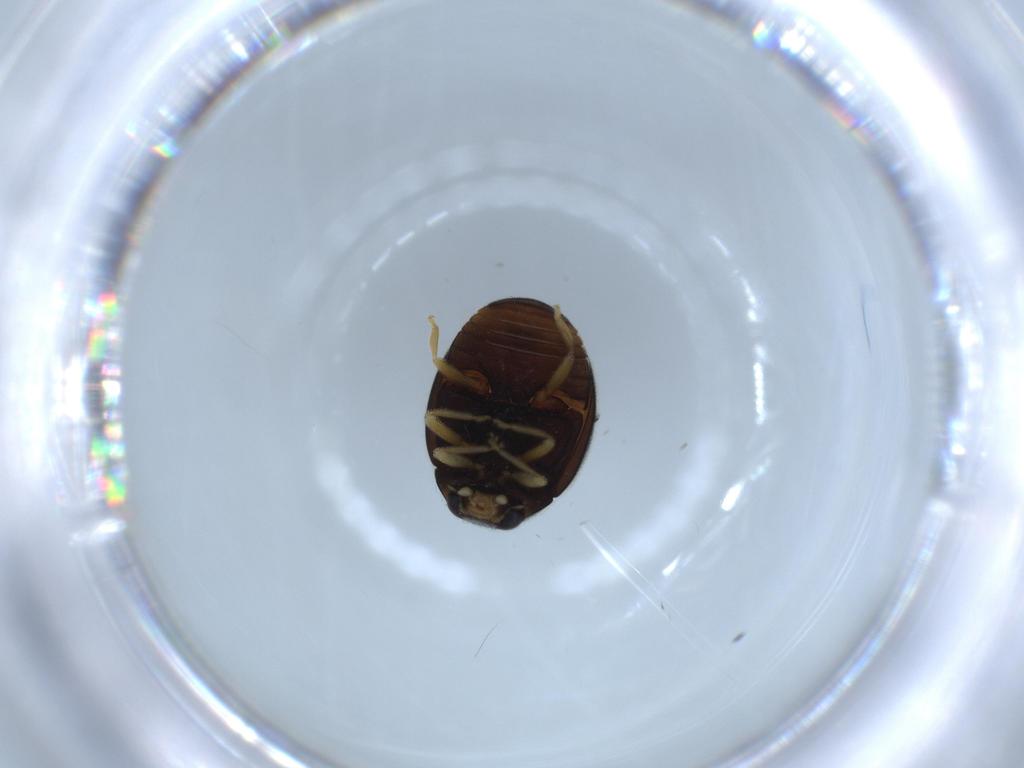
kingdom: Animalia
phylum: Arthropoda
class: Insecta
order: Coleoptera
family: Coccinellidae
